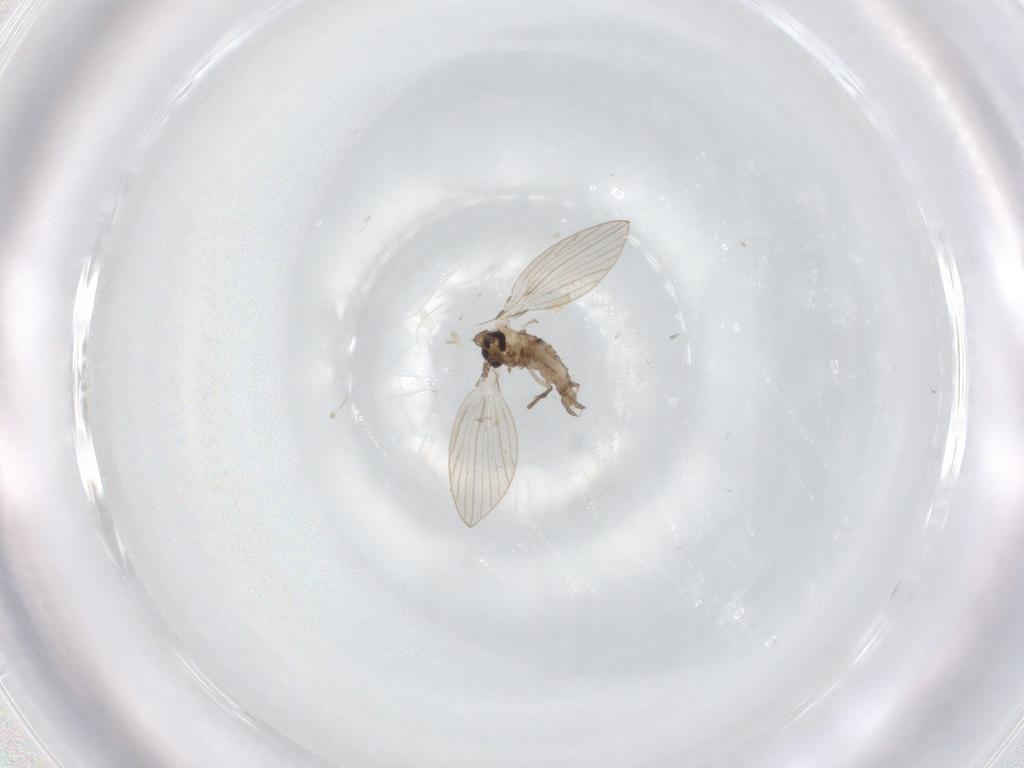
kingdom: Animalia
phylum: Arthropoda
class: Insecta
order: Diptera
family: Psychodidae
